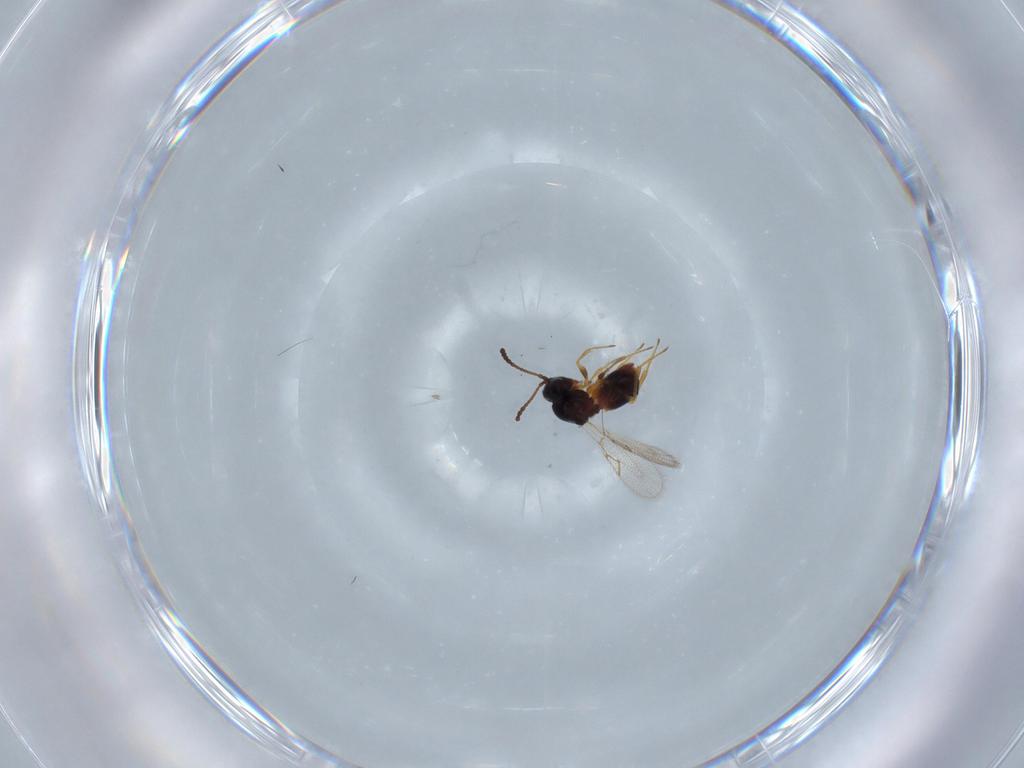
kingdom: Animalia
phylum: Arthropoda
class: Insecta
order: Hymenoptera
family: Figitidae
